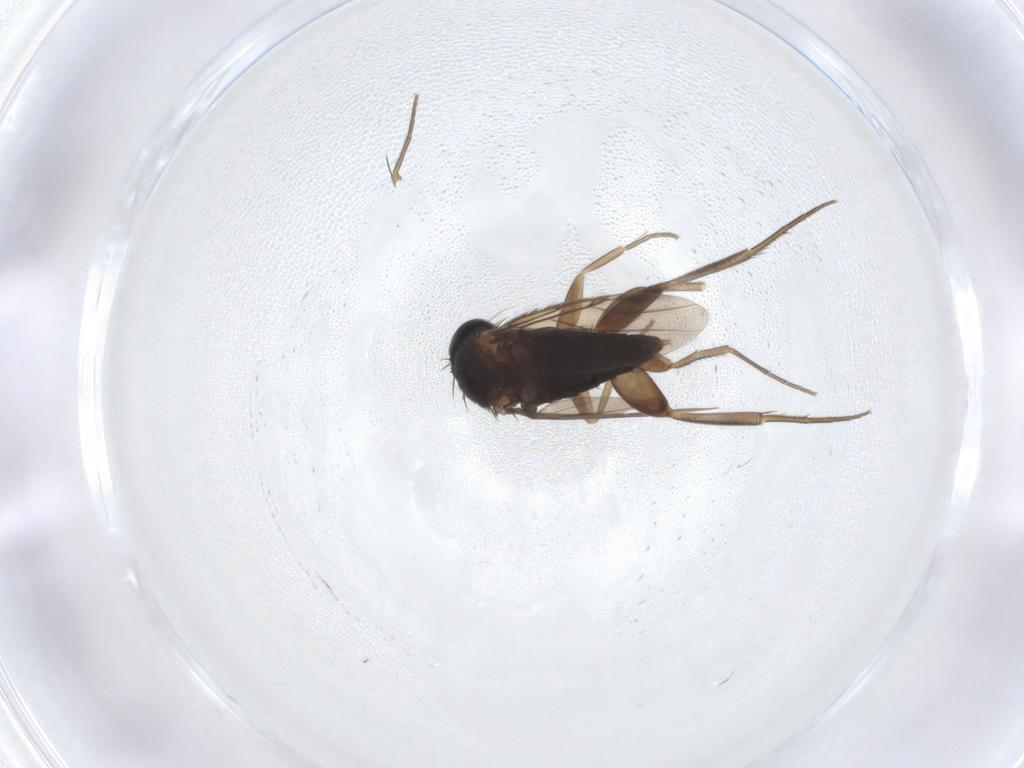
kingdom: Animalia
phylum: Arthropoda
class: Insecta
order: Diptera
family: Phoridae
